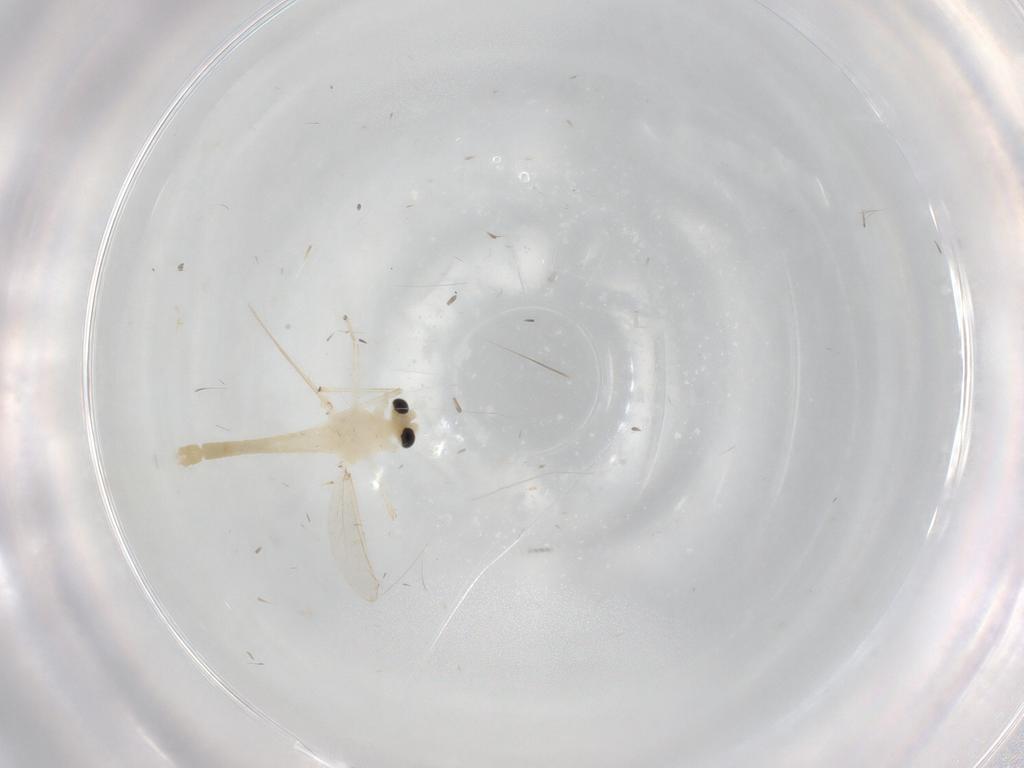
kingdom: Animalia
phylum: Arthropoda
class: Insecta
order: Diptera
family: Chironomidae
